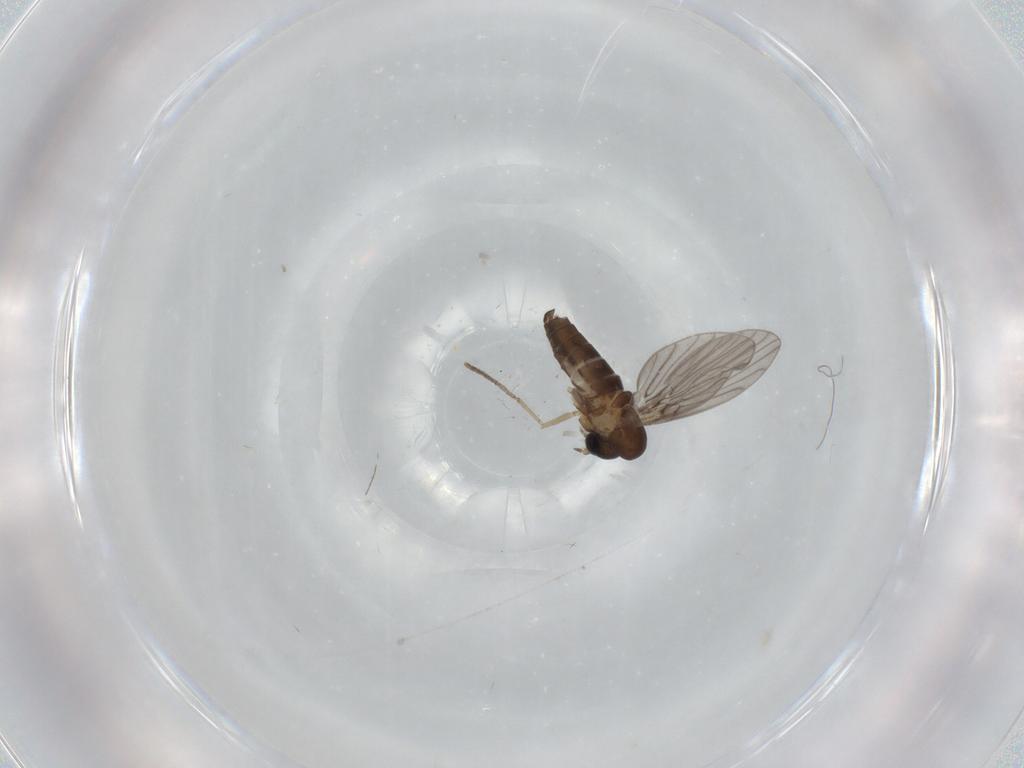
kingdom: Animalia
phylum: Arthropoda
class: Insecta
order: Diptera
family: Psychodidae
